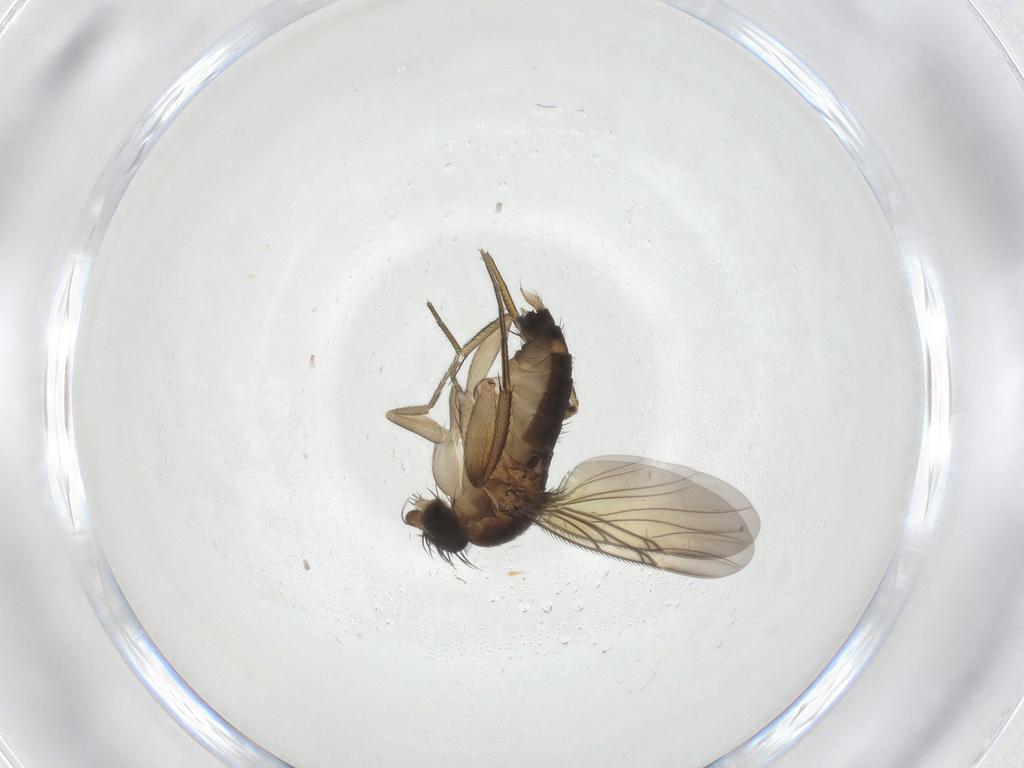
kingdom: Animalia
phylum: Arthropoda
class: Insecta
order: Diptera
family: Phoridae
